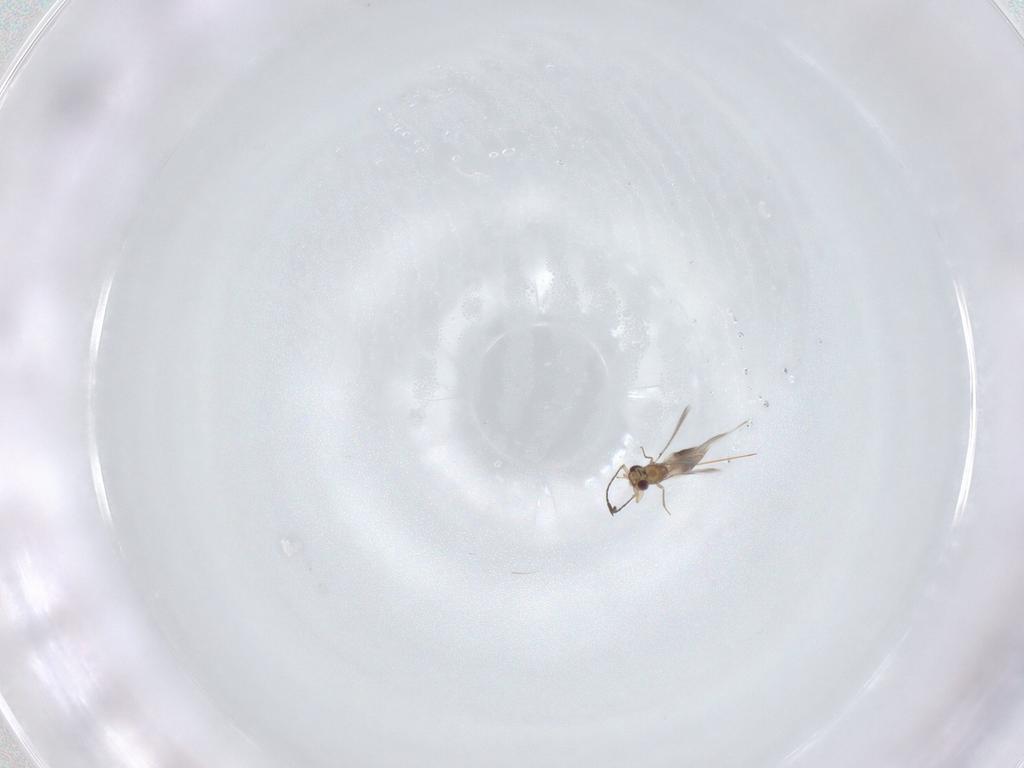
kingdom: Animalia
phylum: Arthropoda
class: Insecta
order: Hymenoptera
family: Mymaridae
